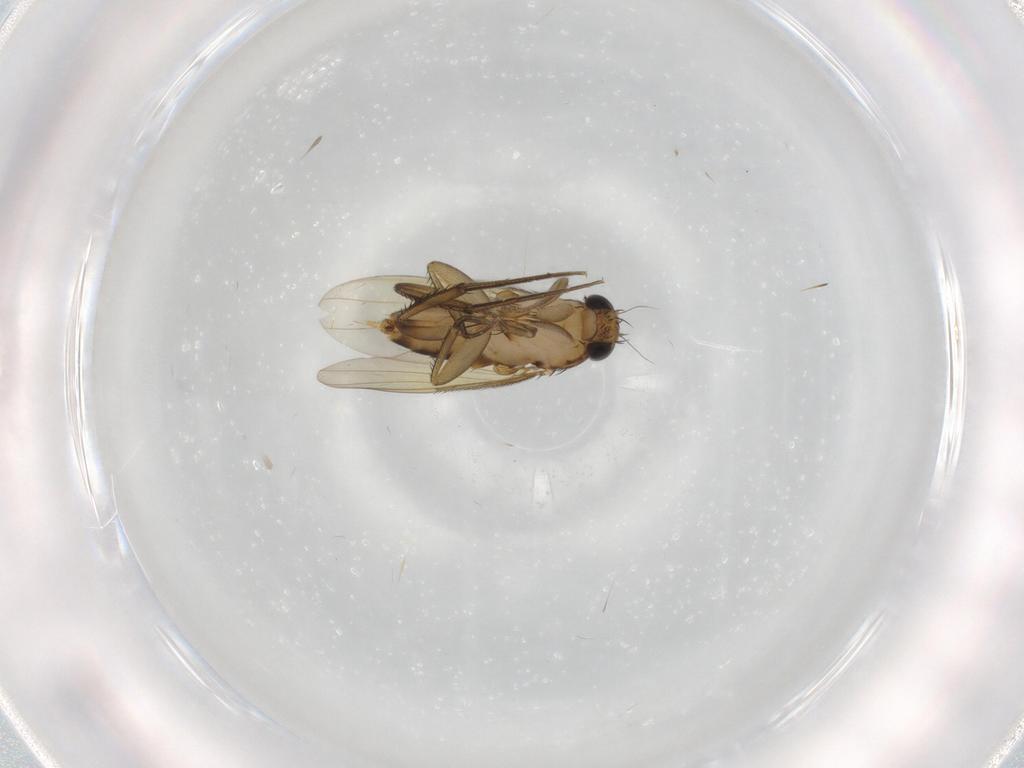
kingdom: Animalia
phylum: Arthropoda
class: Insecta
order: Diptera
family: Phoridae
